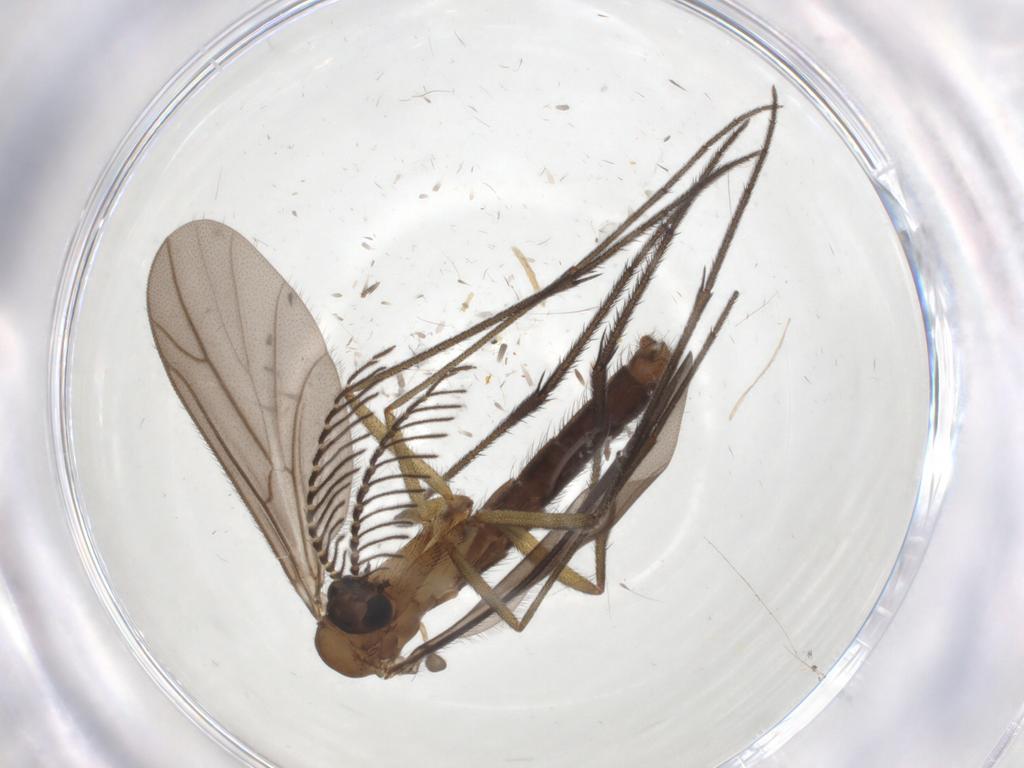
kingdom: Animalia
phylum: Arthropoda
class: Insecta
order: Diptera
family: Ditomyiidae
